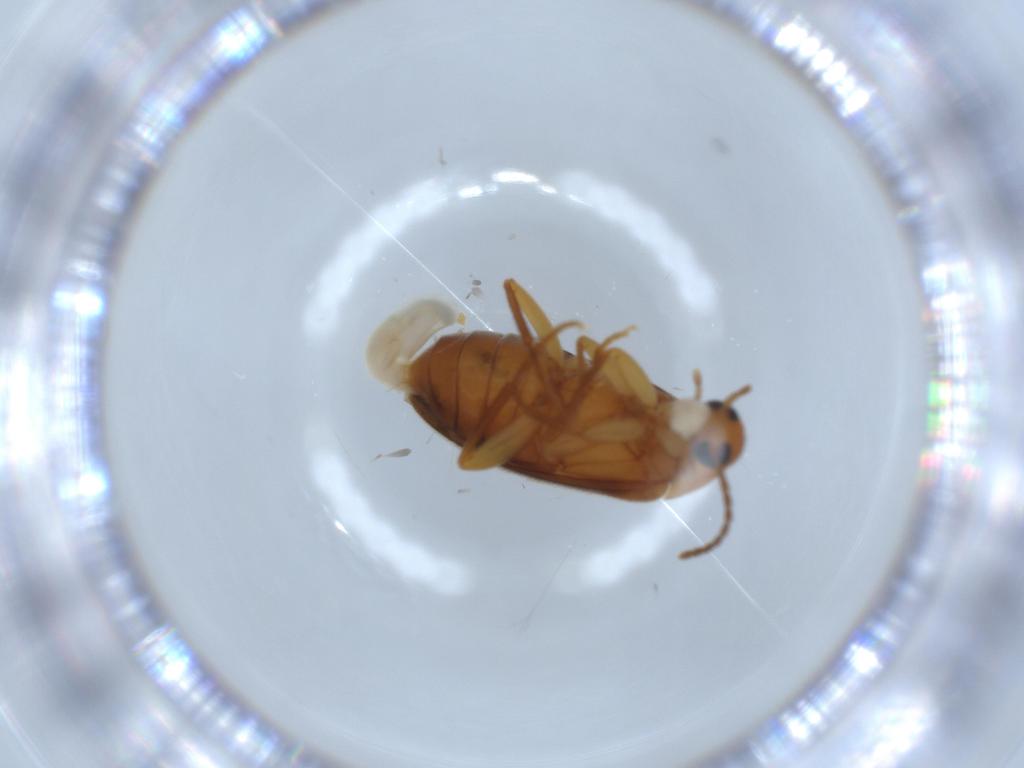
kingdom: Animalia
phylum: Arthropoda
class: Insecta
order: Coleoptera
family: Scraptiidae
